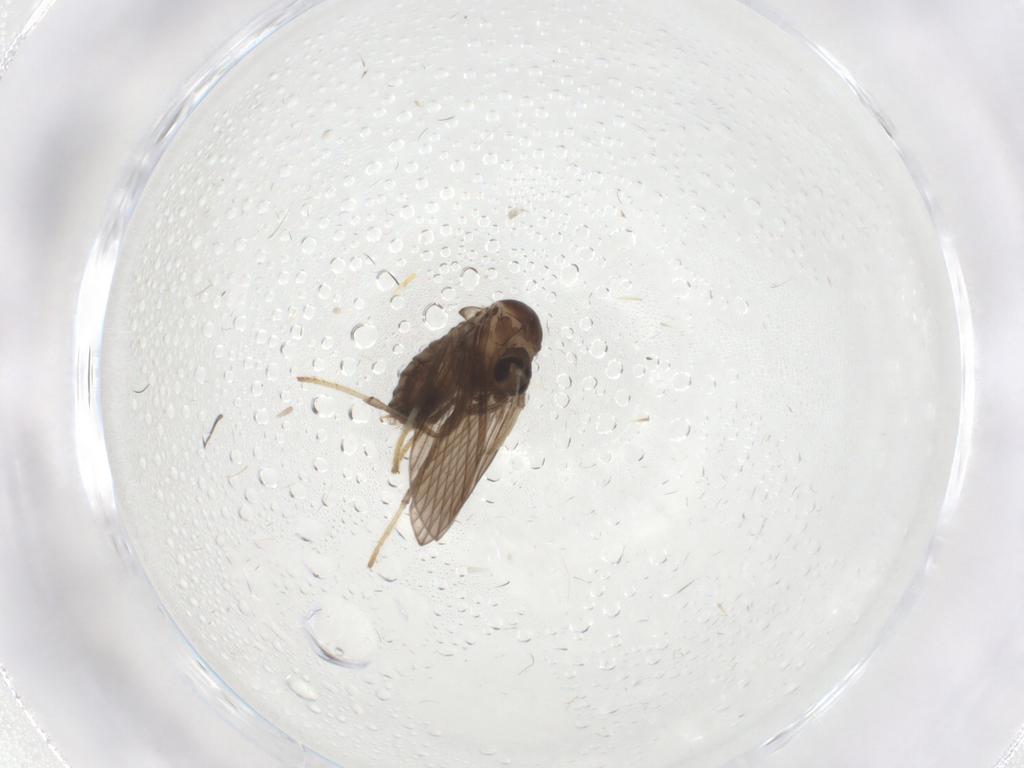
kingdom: Animalia
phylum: Arthropoda
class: Insecta
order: Diptera
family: Psychodidae
